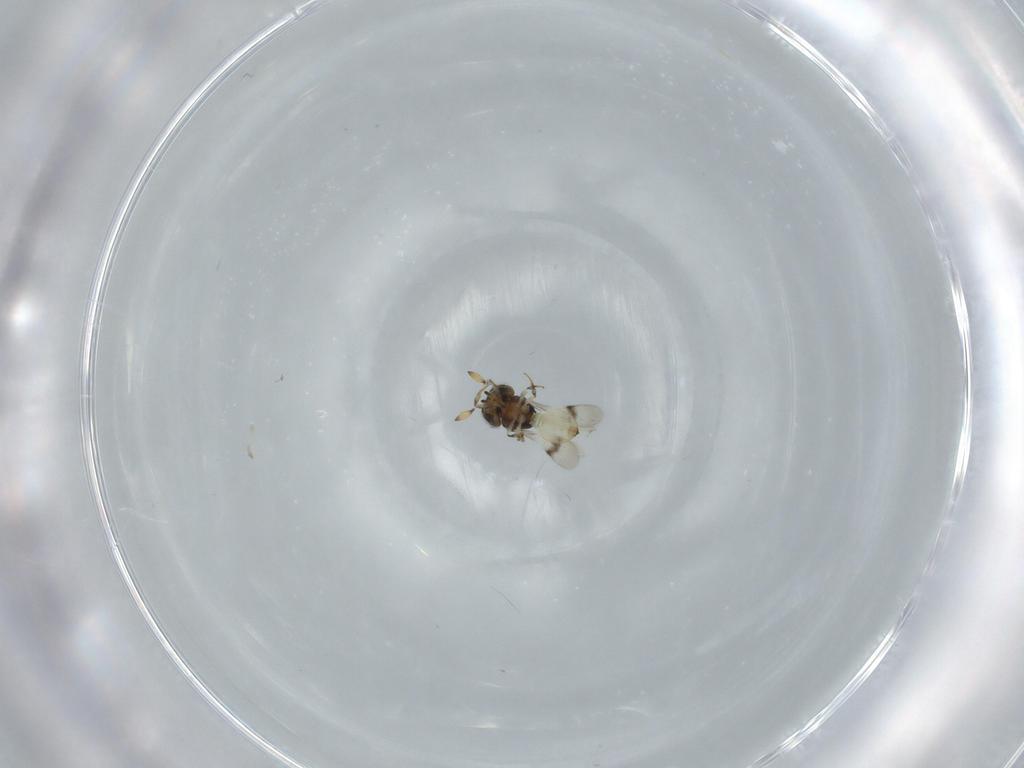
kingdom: Animalia
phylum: Arthropoda
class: Insecta
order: Hymenoptera
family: Scelionidae
